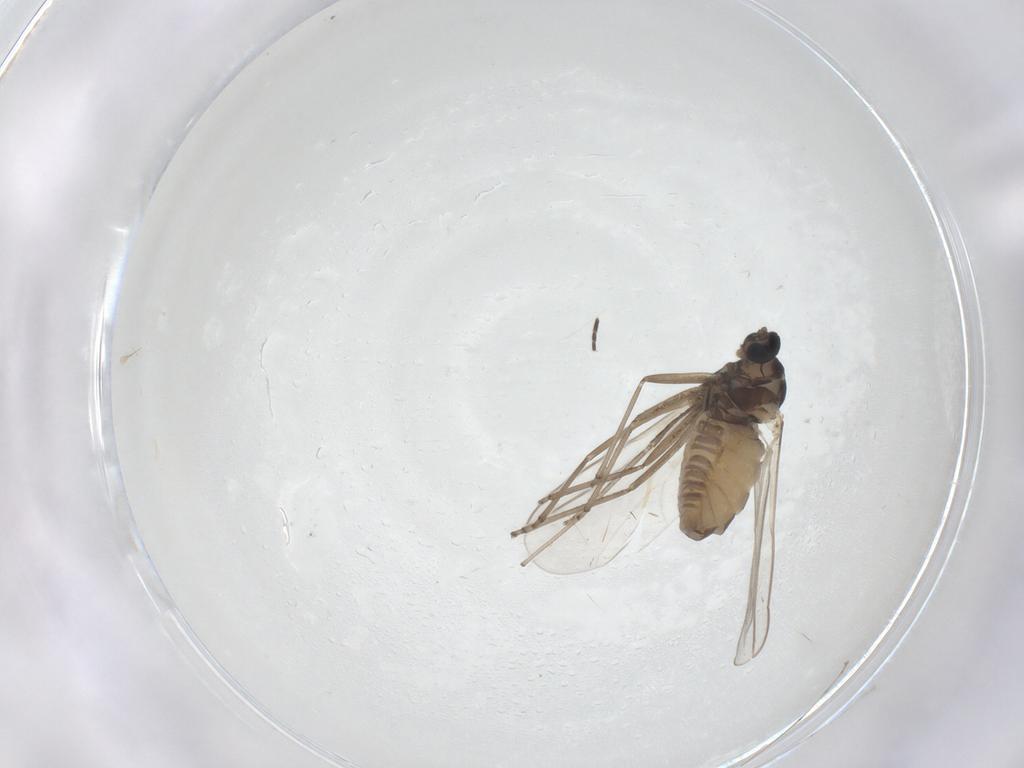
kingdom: Animalia
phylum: Arthropoda
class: Insecta
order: Diptera
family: Cecidomyiidae
